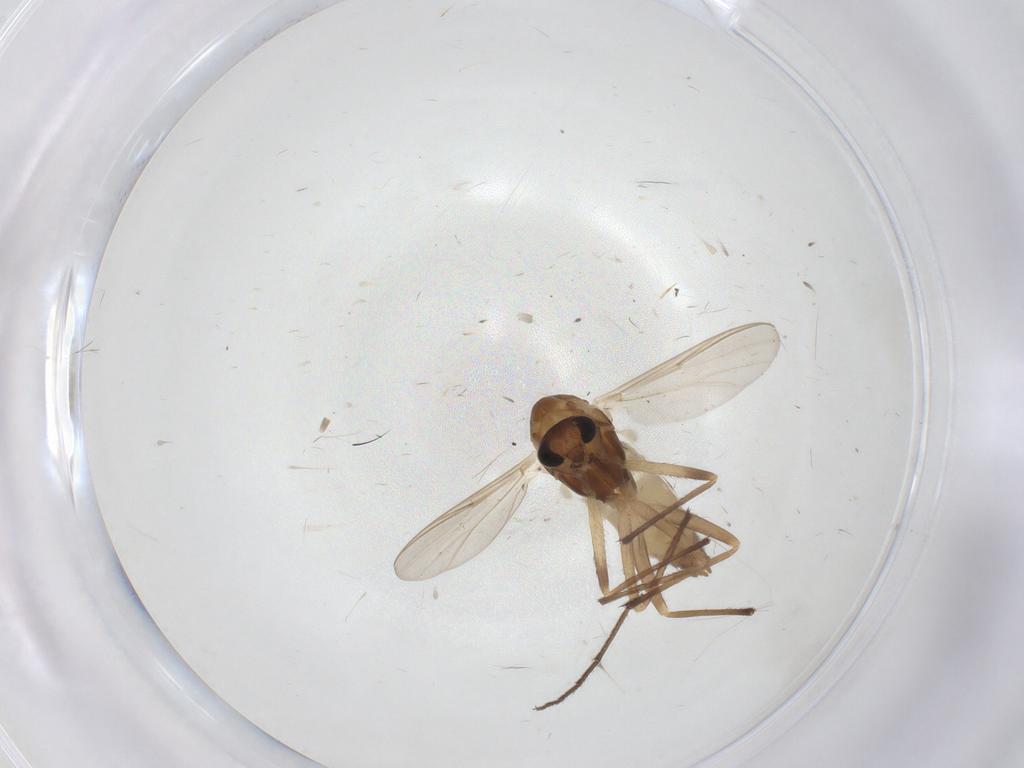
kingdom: Animalia
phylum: Arthropoda
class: Insecta
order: Diptera
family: Chironomidae
